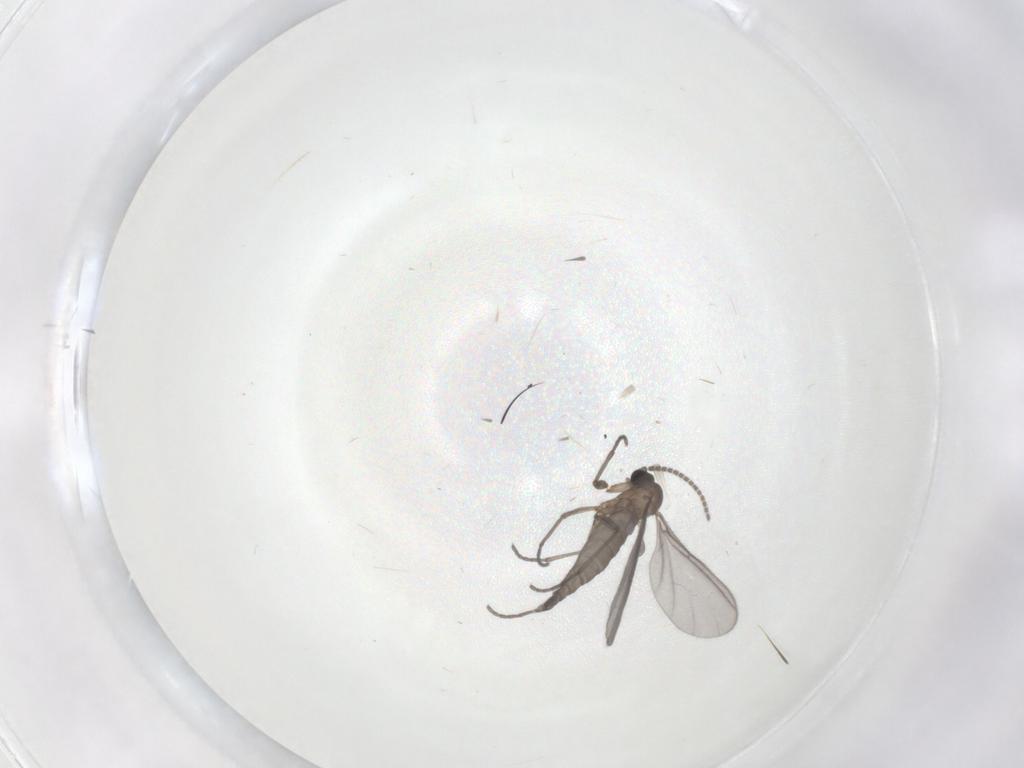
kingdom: Animalia
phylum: Arthropoda
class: Insecta
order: Diptera
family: Sciaridae
